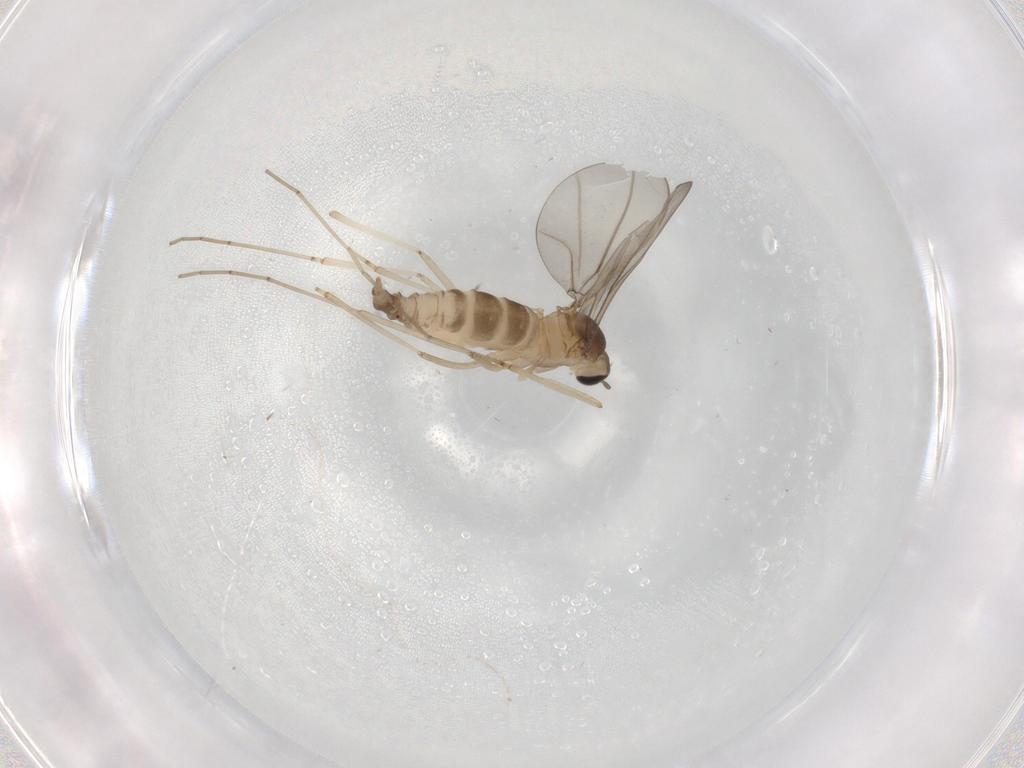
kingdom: Animalia
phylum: Arthropoda
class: Insecta
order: Diptera
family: Cecidomyiidae
